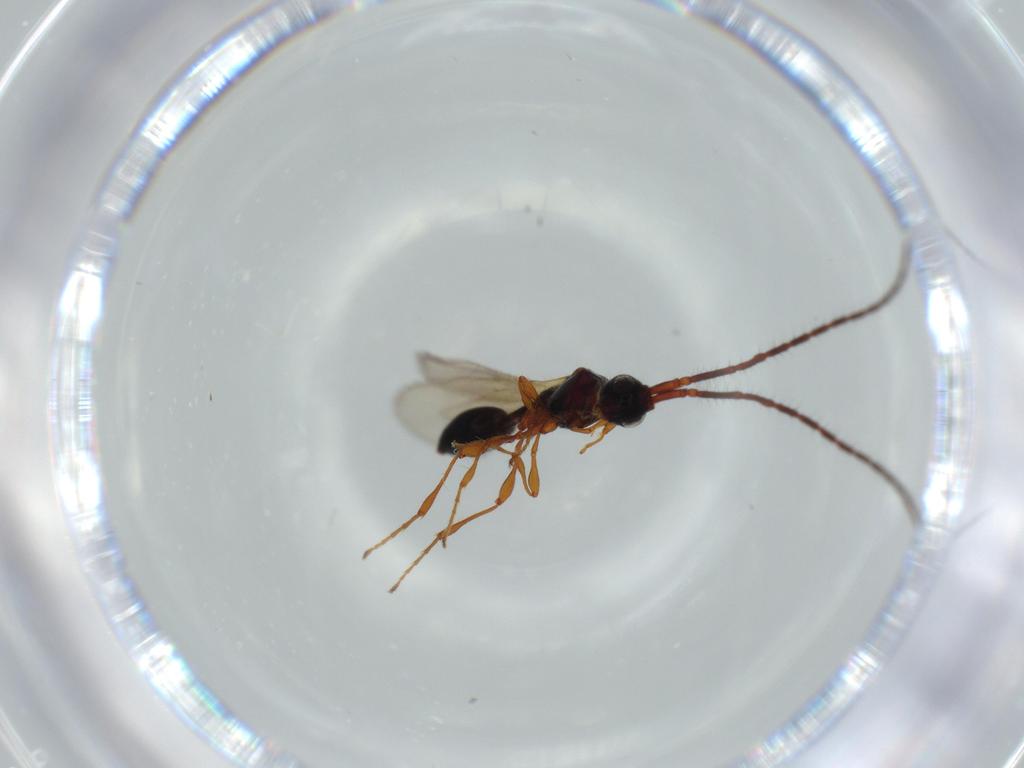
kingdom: Animalia
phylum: Arthropoda
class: Insecta
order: Hymenoptera
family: Diapriidae
